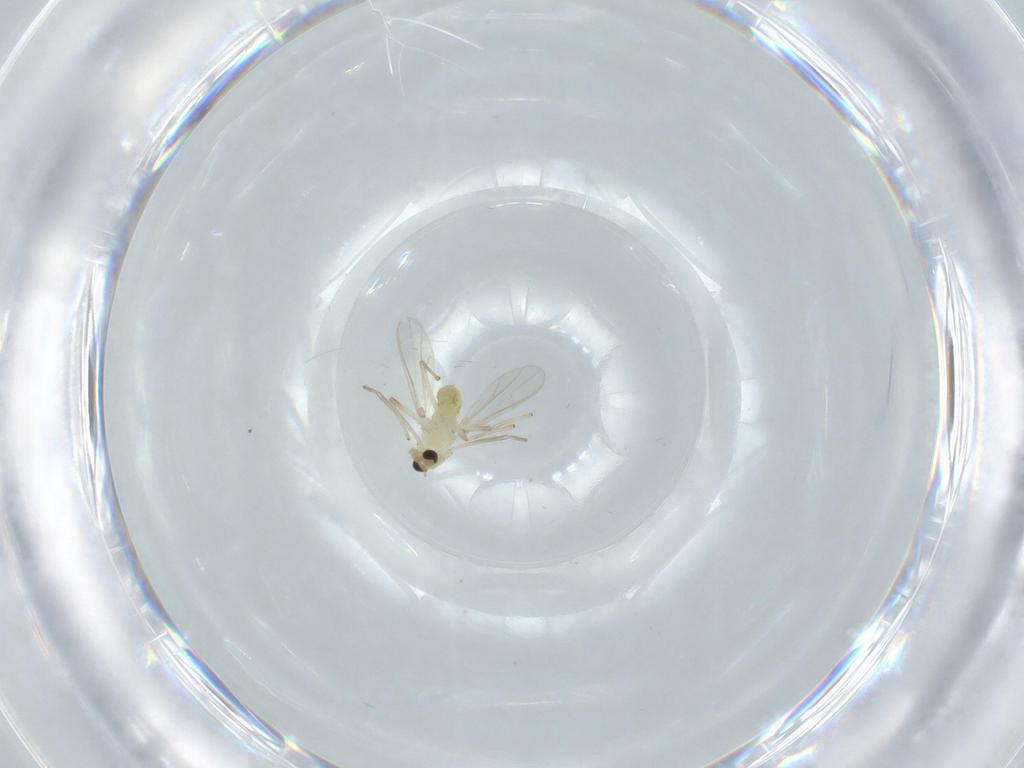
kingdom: Animalia
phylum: Arthropoda
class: Insecta
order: Diptera
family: Chironomidae
